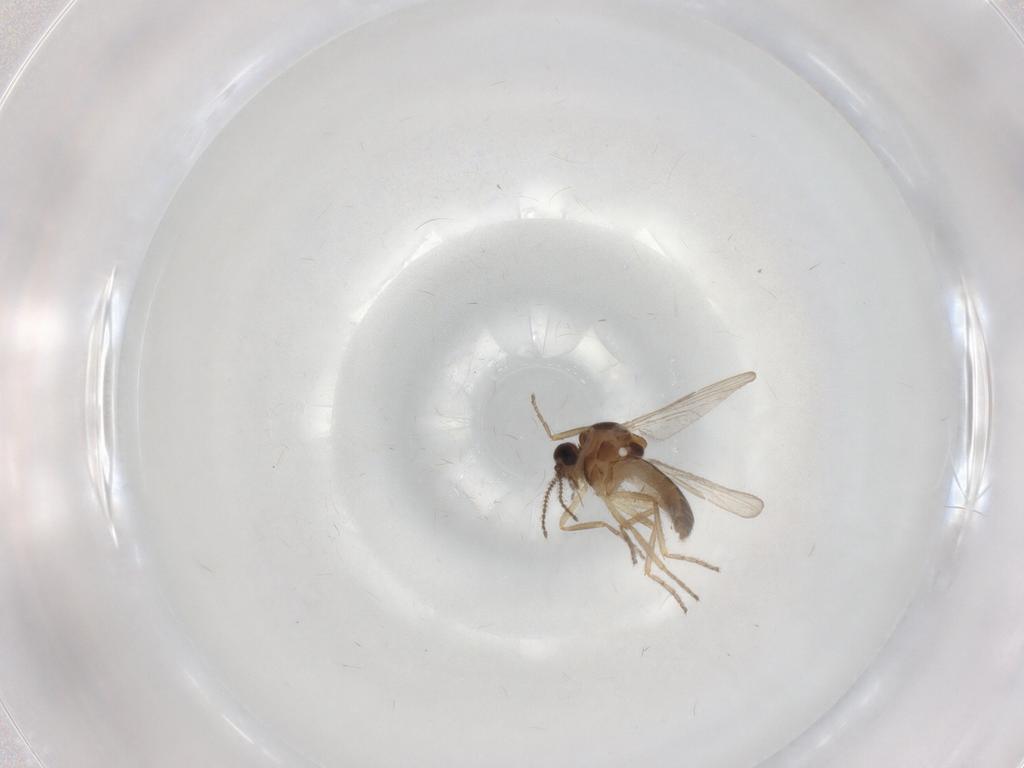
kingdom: Animalia
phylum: Arthropoda
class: Insecta
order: Diptera
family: Ceratopogonidae
